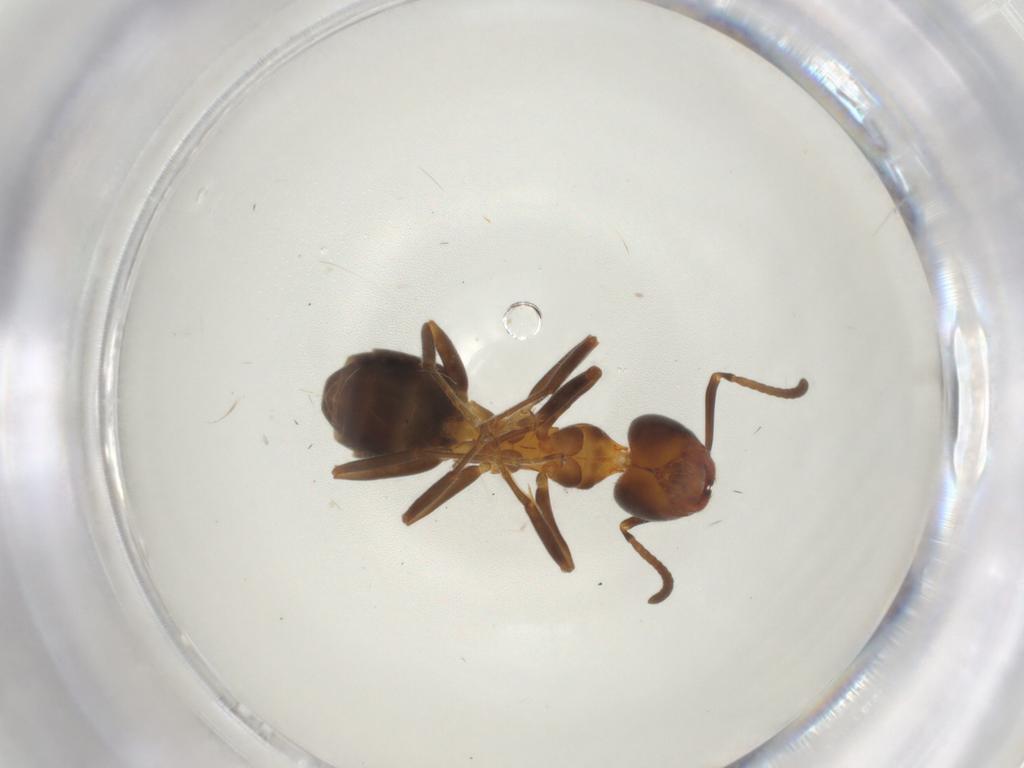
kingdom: Animalia
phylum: Arthropoda
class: Insecta
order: Hymenoptera
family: Formicidae
